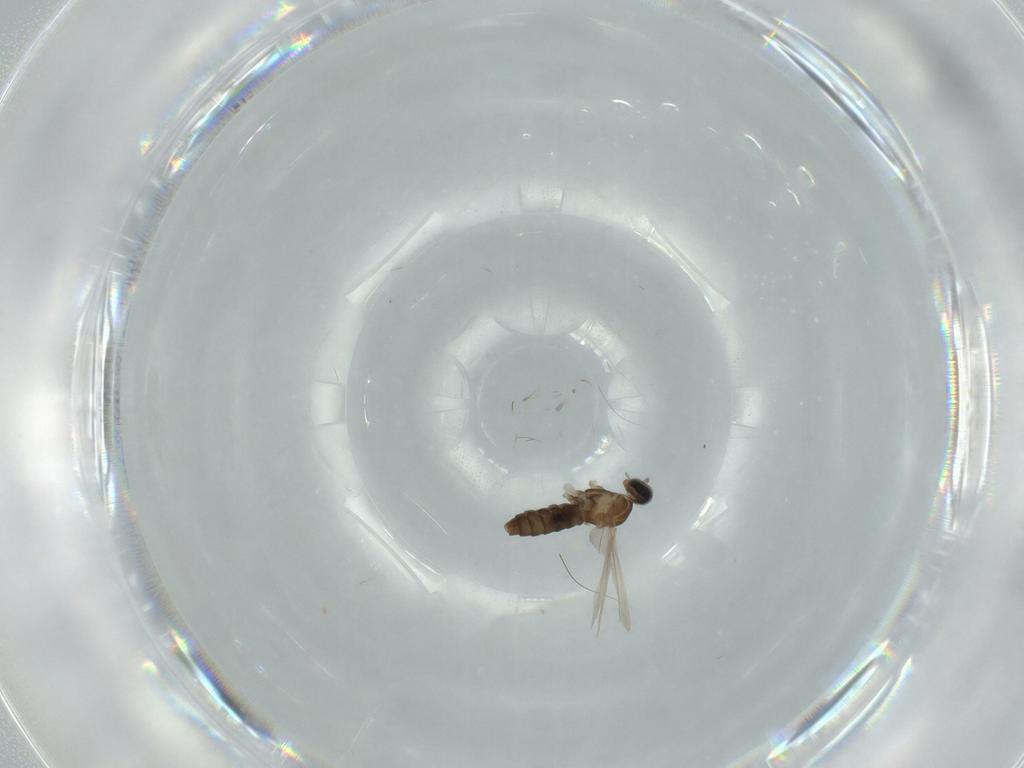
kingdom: Animalia
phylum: Arthropoda
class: Insecta
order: Diptera
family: Cecidomyiidae
